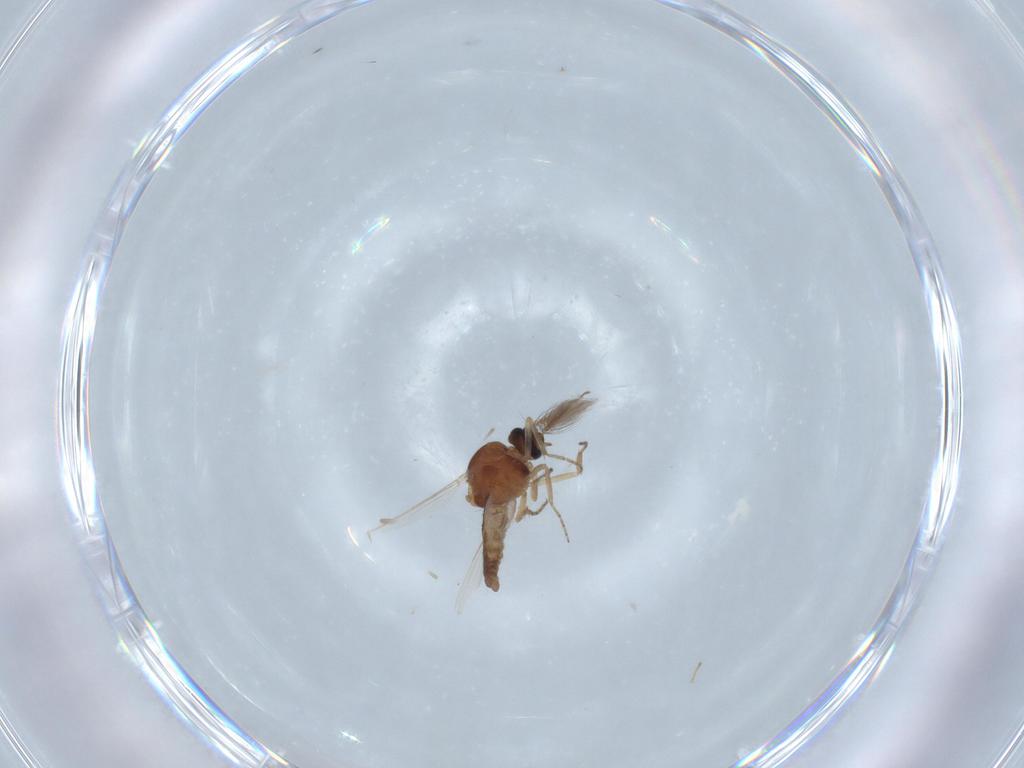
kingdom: Animalia
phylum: Arthropoda
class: Insecta
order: Diptera
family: Ceratopogonidae
